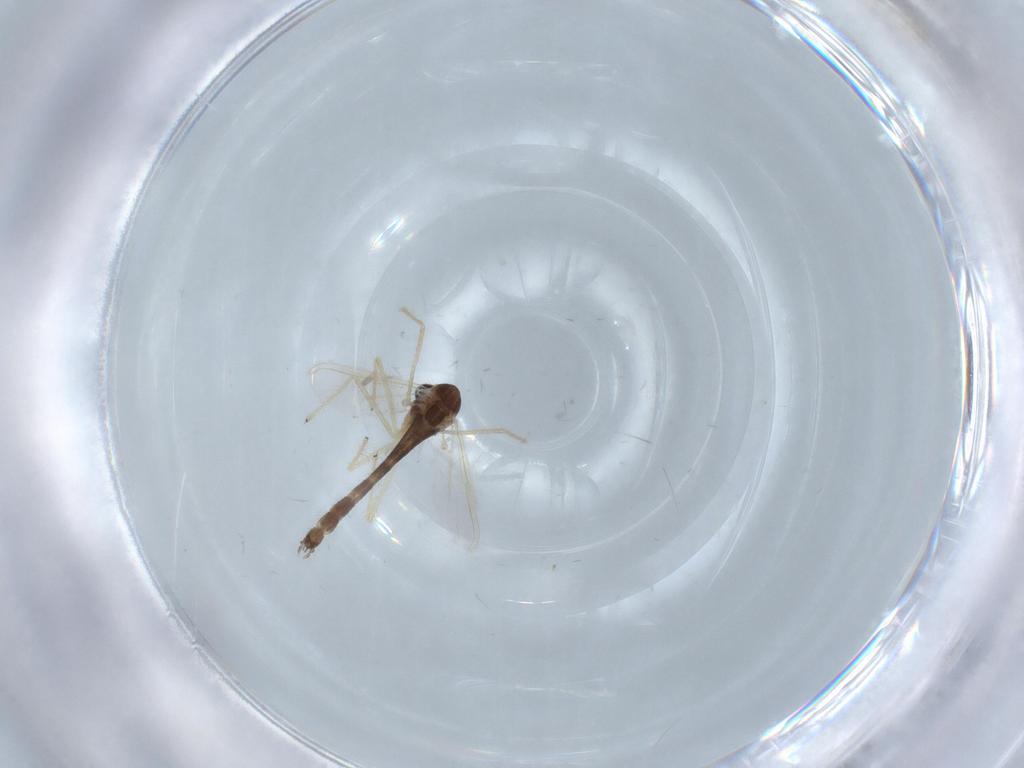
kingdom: Animalia
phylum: Arthropoda
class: Insecta
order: Diptera
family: Chironomidae
